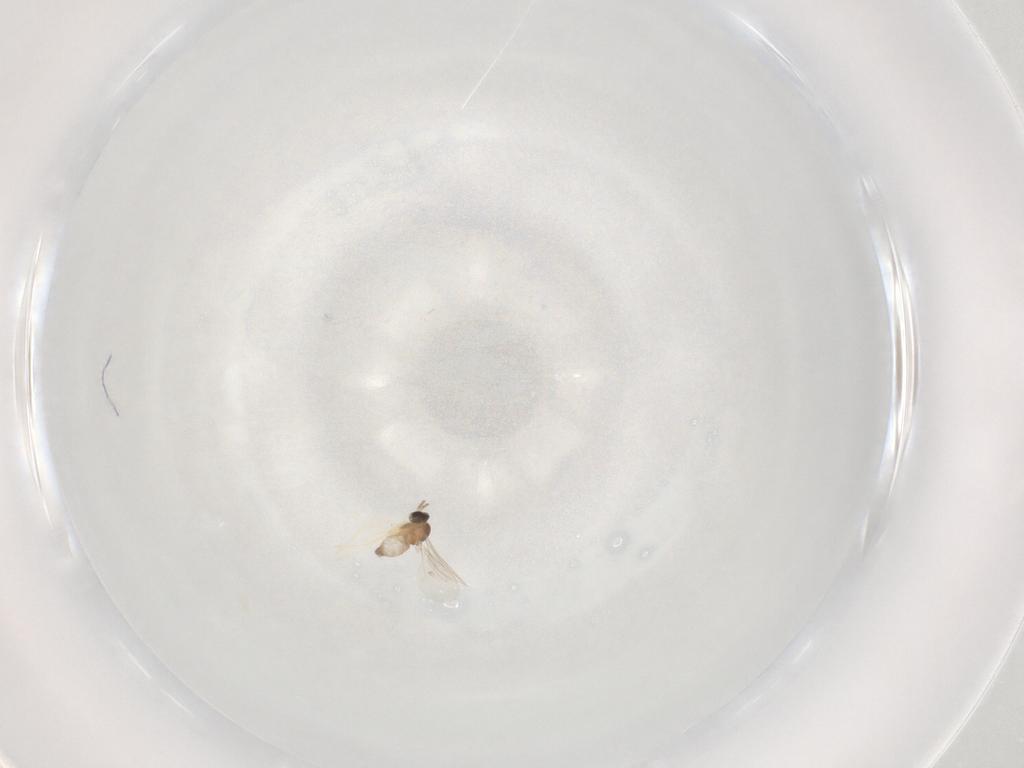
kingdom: Animalia
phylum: Arthropoda
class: Insecta
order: Diptera
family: Cecidomyiidae
